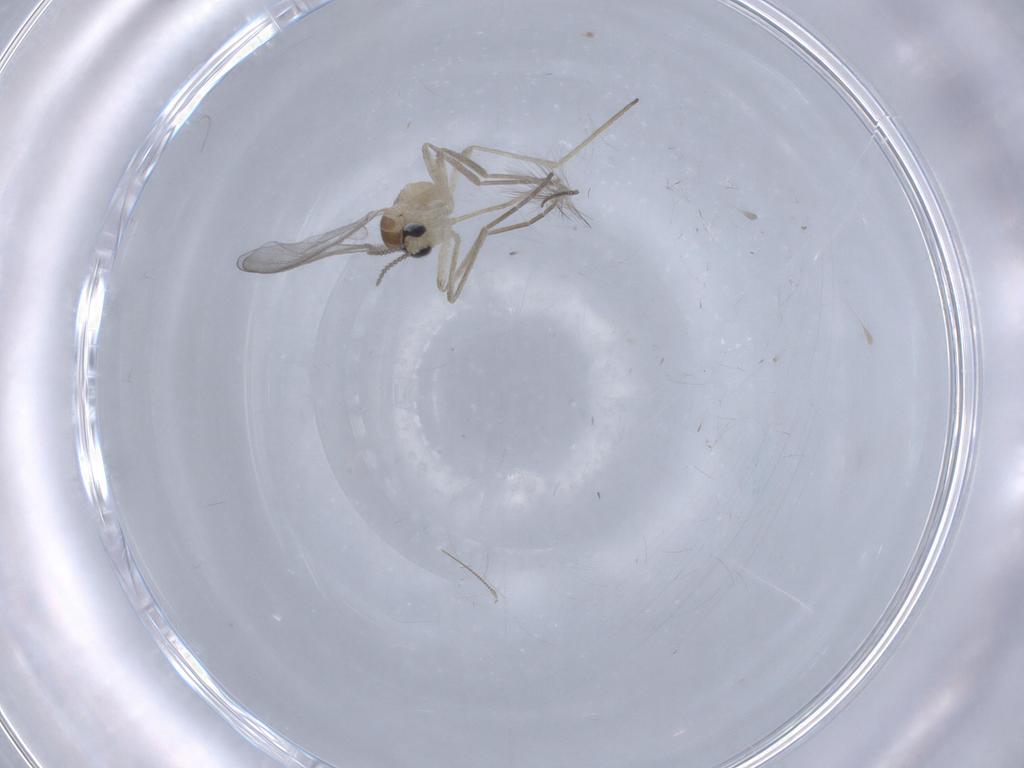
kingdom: Animalia
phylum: Arthropoda
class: Insecta
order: Diptera
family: Cecidomyiidae
